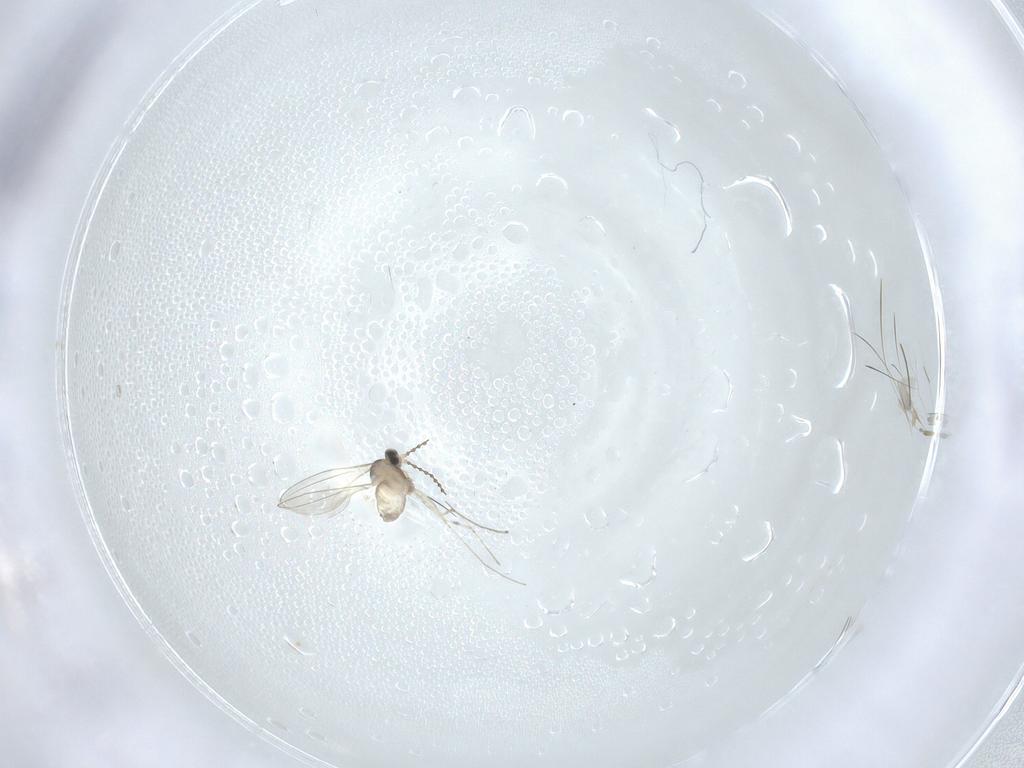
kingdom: Animalia
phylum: Arthropoda
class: Insecta
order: Diptera
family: Cecidomyiidae
